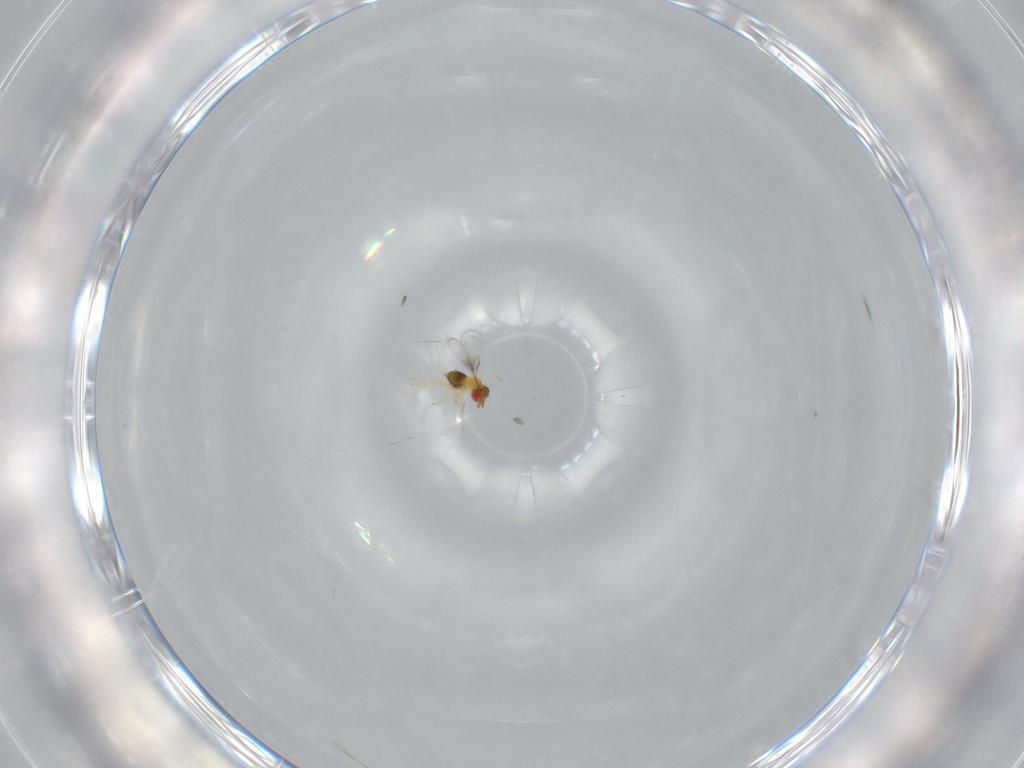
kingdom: Animalia
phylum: Arthropoda
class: Insecta
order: Hymenoptera
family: Trichogrammatidae
